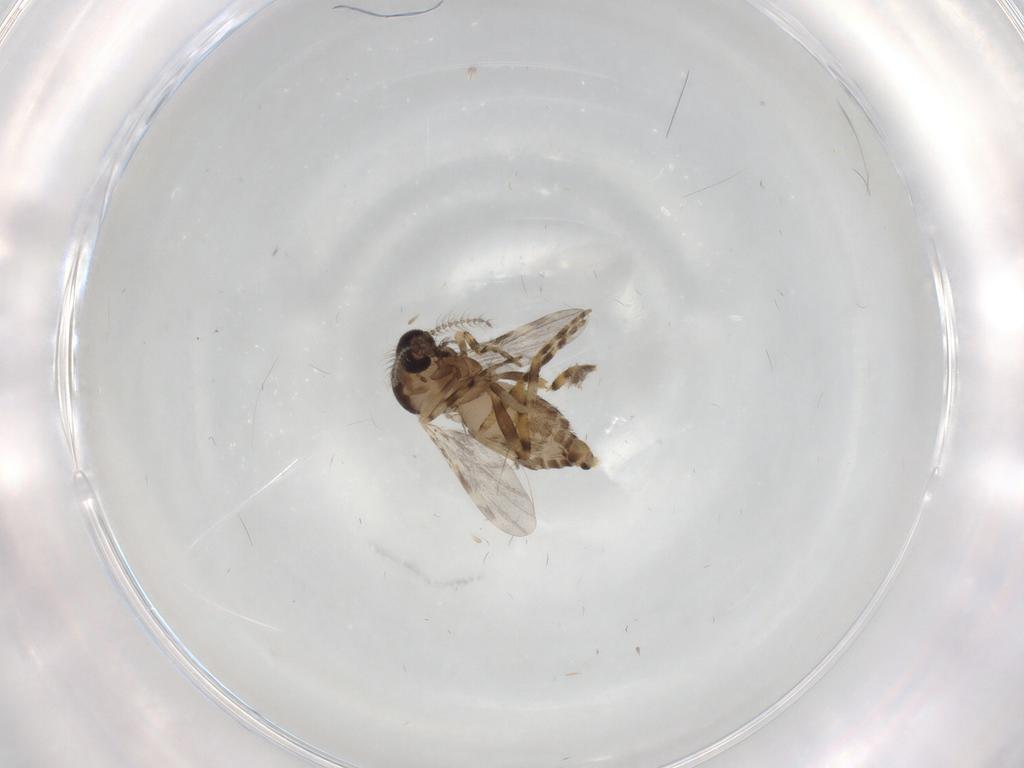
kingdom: Animalia
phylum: Arthropoda
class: Insecta
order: Diptera
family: Ceratopogonidae
